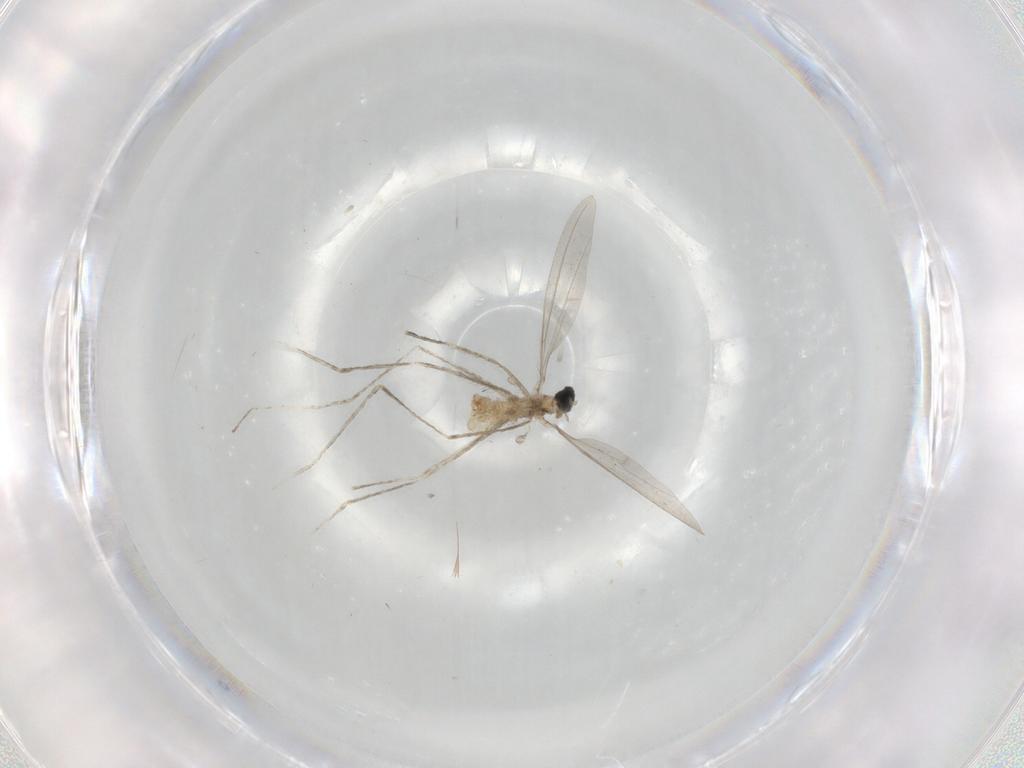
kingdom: Animalia
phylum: Arthropoda
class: Insecta
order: Diptera
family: Cecidomyiidae
